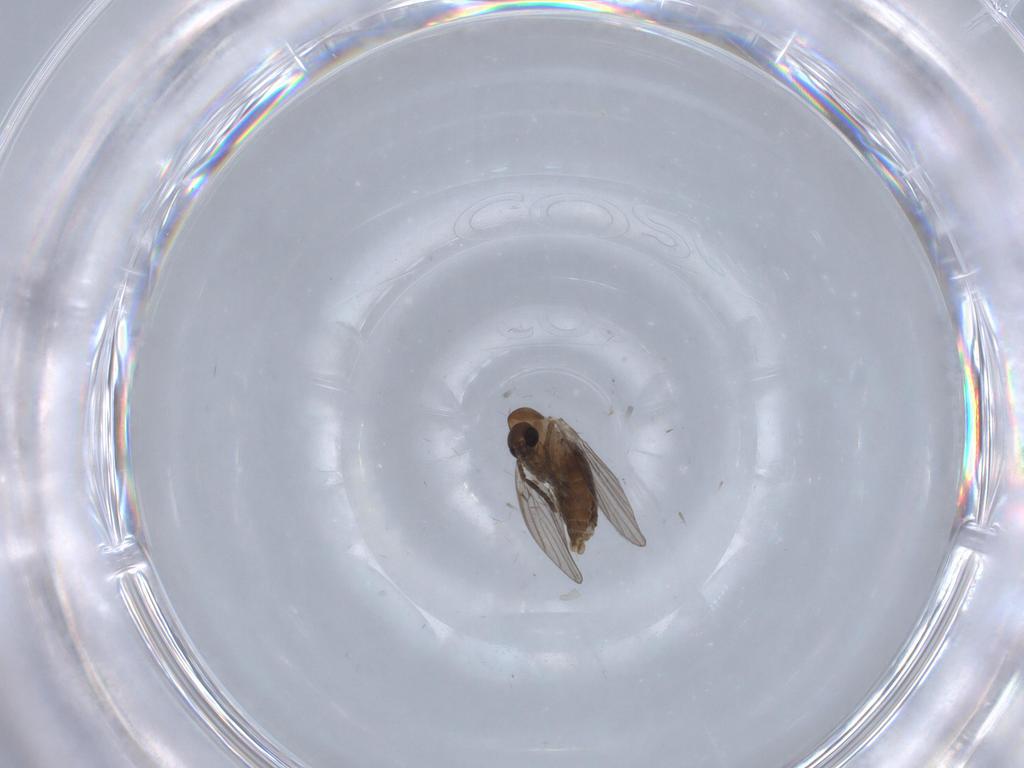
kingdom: Animalia
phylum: Arthropoda
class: Insecta
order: Diptera
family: Psychodidae
